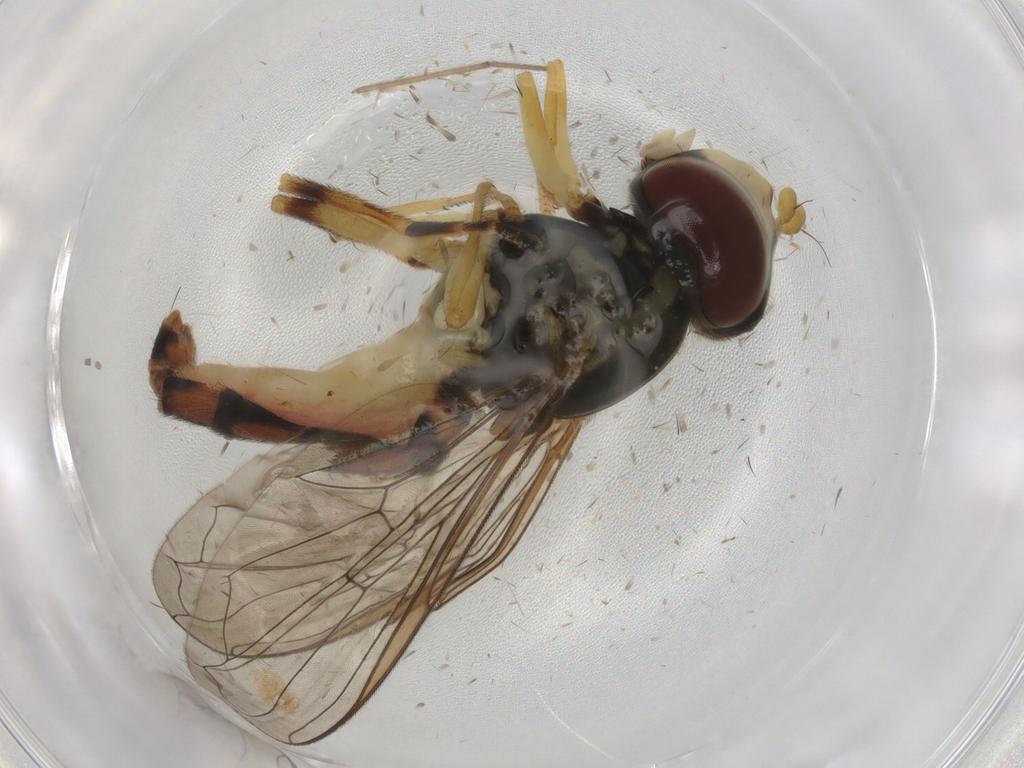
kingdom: Animalia
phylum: Arthropoda
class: Insecta
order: Diptera
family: Syrphidae
